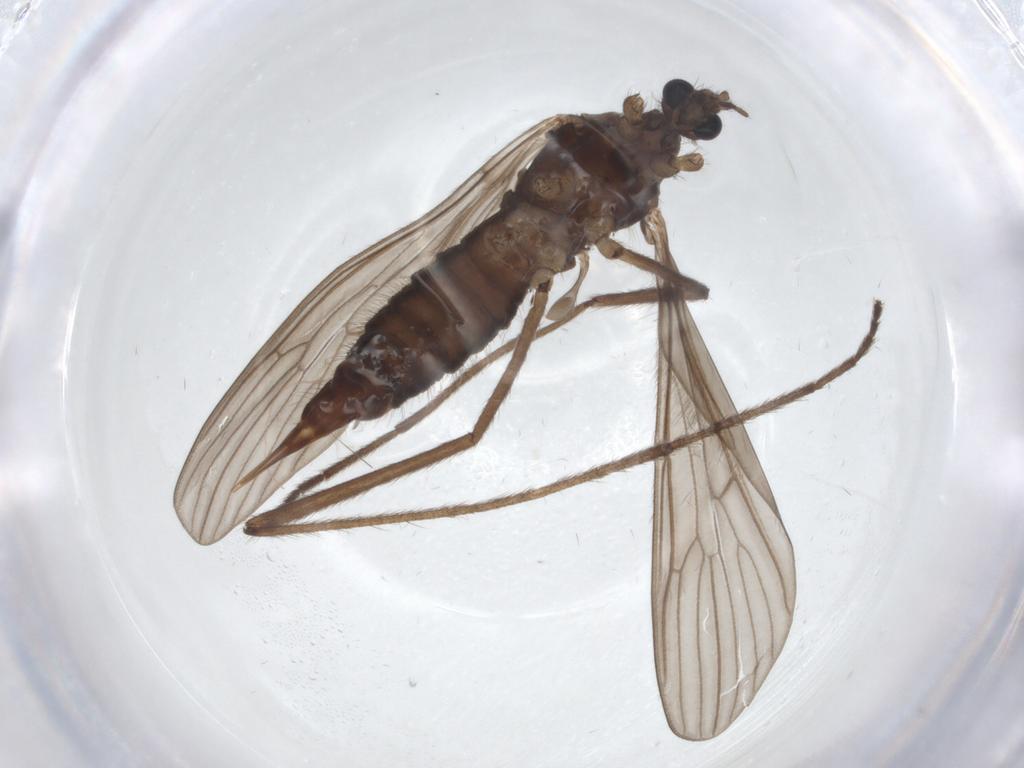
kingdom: Animalia
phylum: Arthropoda
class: Insecta
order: Diptera
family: Limoniidae
